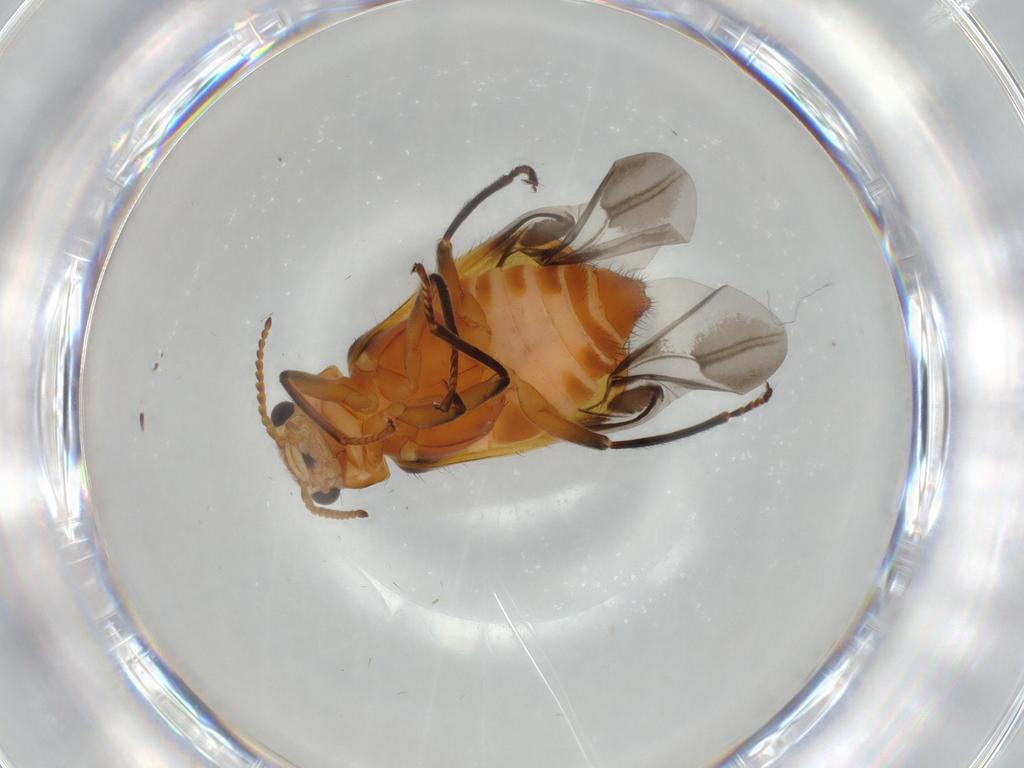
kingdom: Animalia
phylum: Arthropoda
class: Insecta
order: Coleoptera
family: Melyridae
